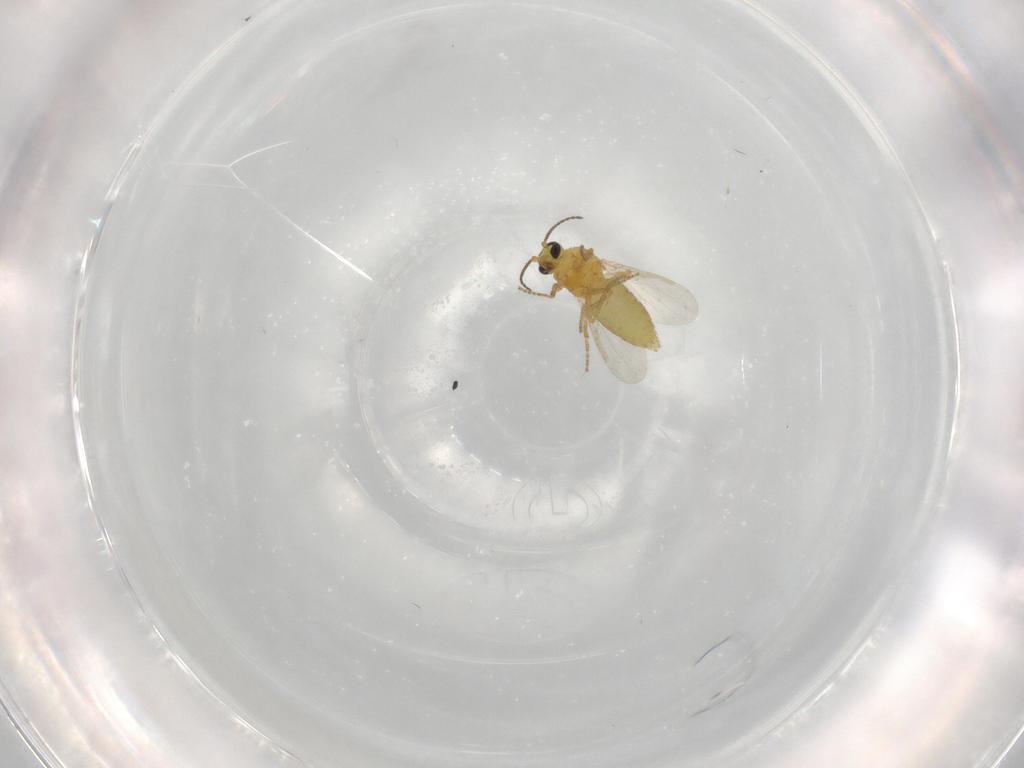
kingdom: Animalia
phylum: Arthropoda
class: Insecta
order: Diptera
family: Ceratopogonidae
